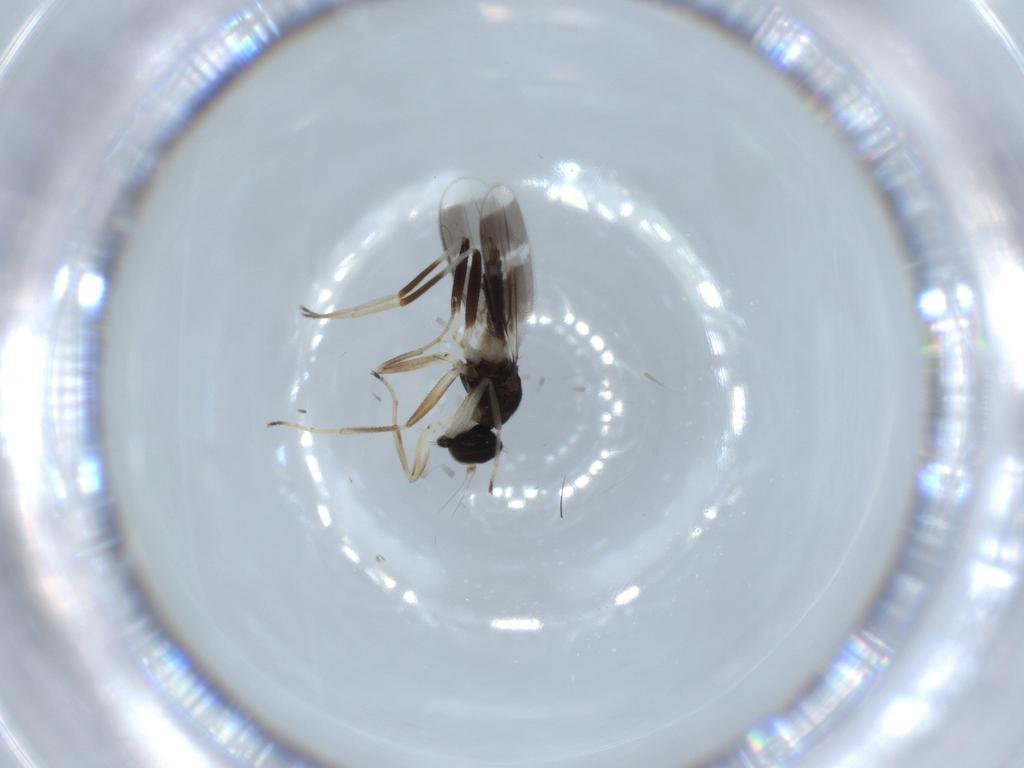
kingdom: Animalia
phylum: Arthropoda
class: Insecta
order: Diptera
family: Hybotidae
